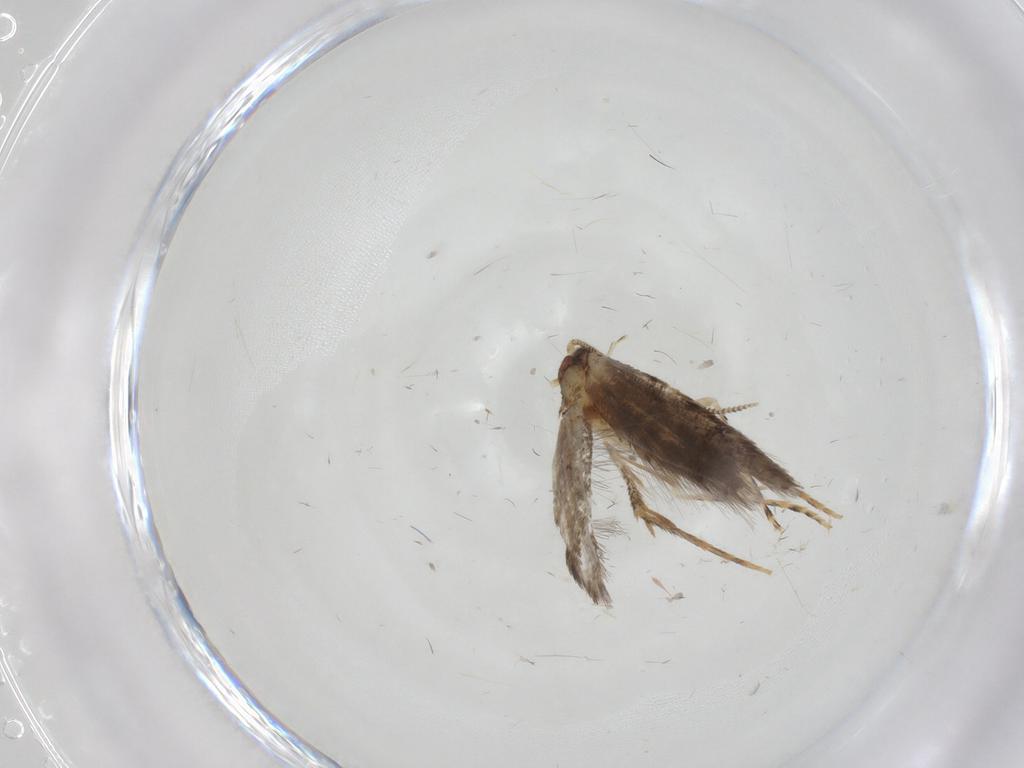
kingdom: Animalia
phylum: Arthropoda
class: Insecta
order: Lepidoptera
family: Tineidae
